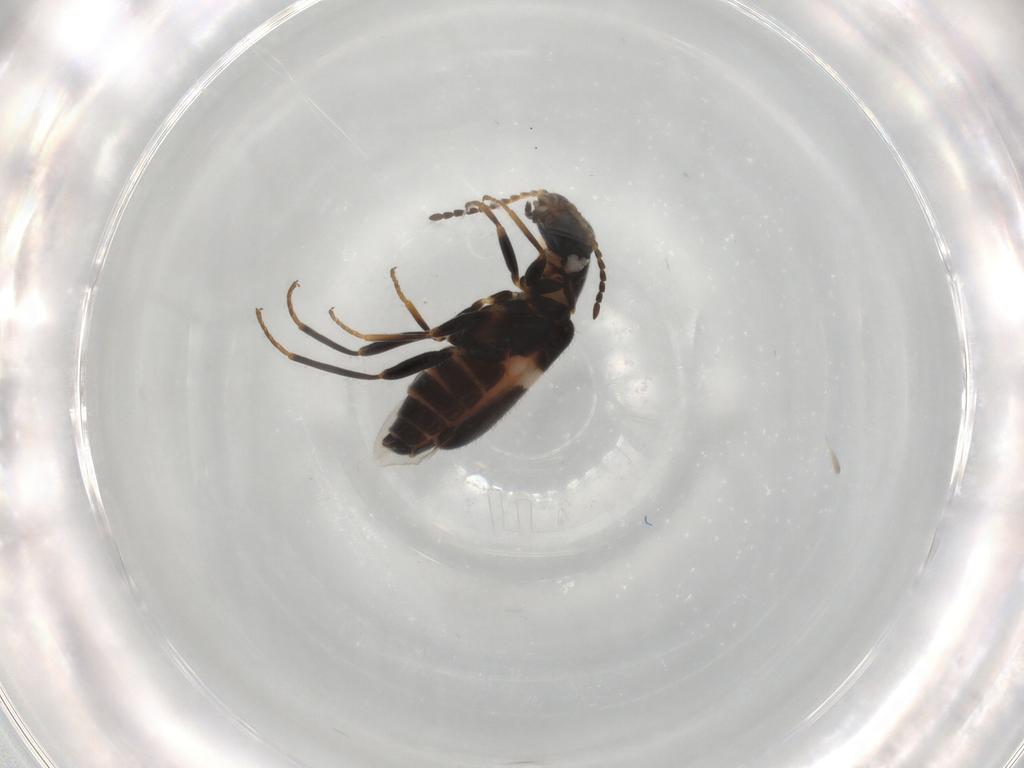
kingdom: Animalia
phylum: Arthropoda
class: Insecta
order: Coleoptera
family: Melyridae
